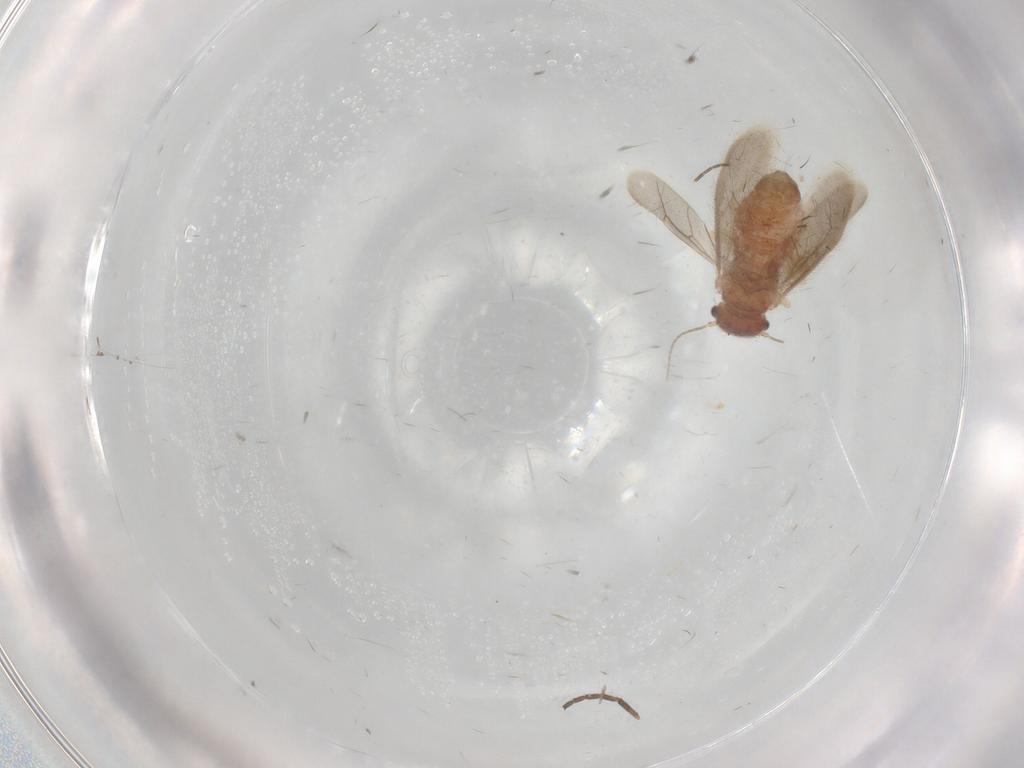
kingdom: Animalia
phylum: Arthropoda
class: Insecta
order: Psocodea
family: Archipsocidae
